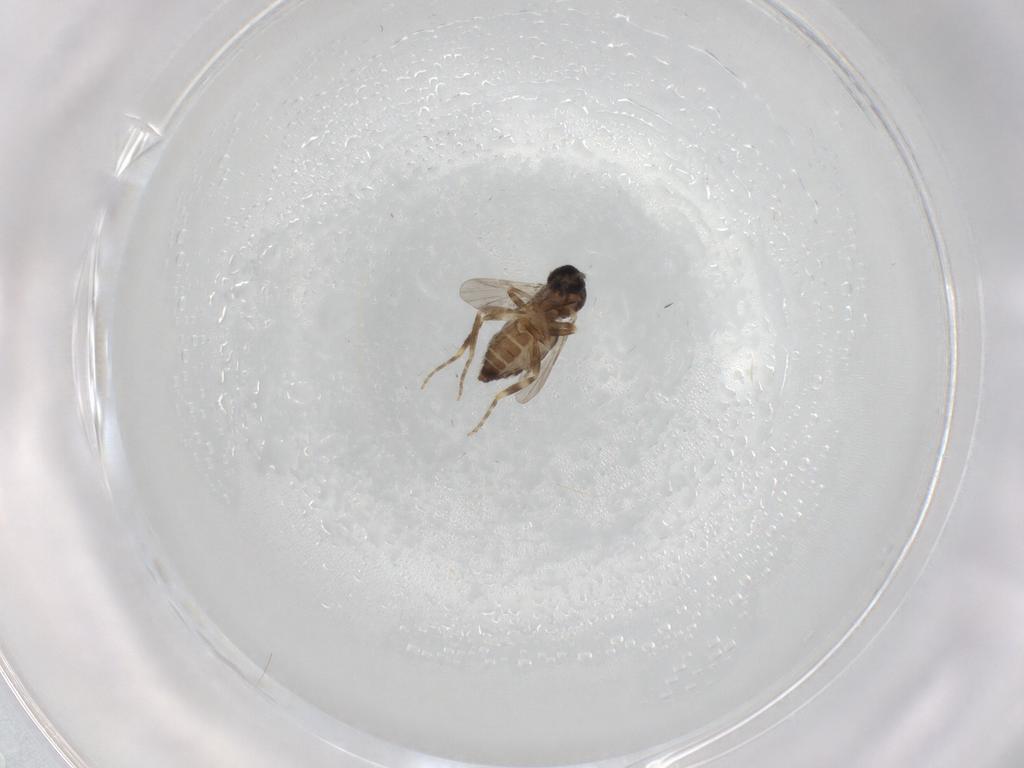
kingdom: Animalia
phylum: Arthropoda
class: Insecta
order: Diptera
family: Ceratopogonidae
